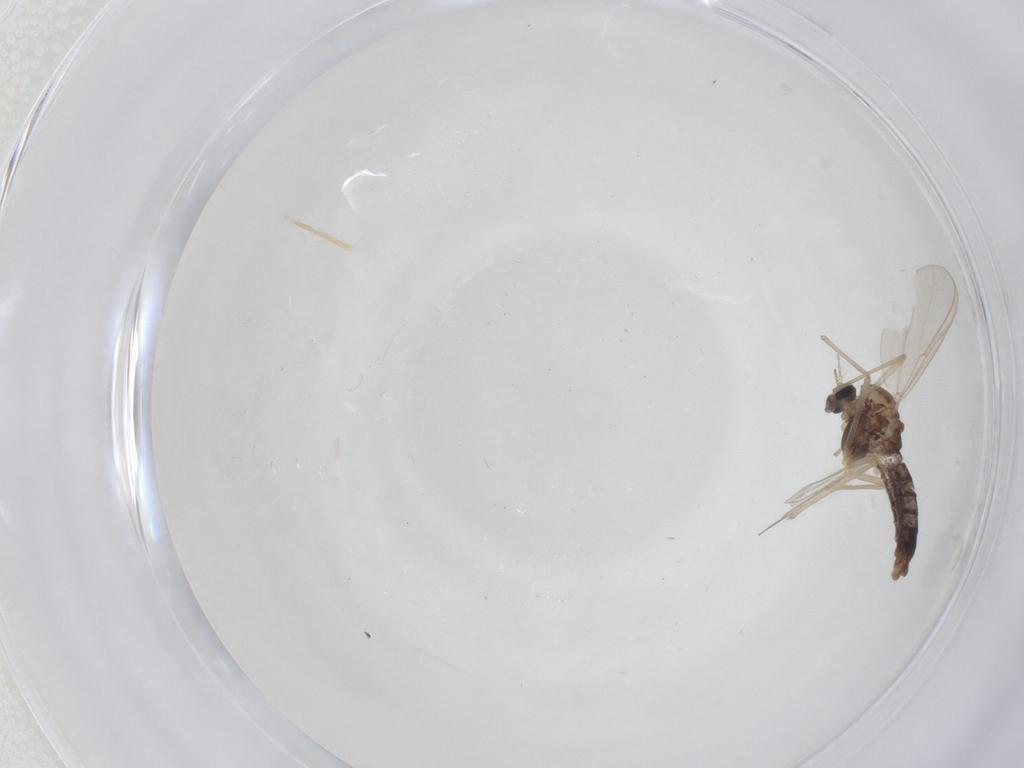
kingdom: Animalia
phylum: Arthropoda
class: Insecta
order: Diptera
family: Chironomidae
